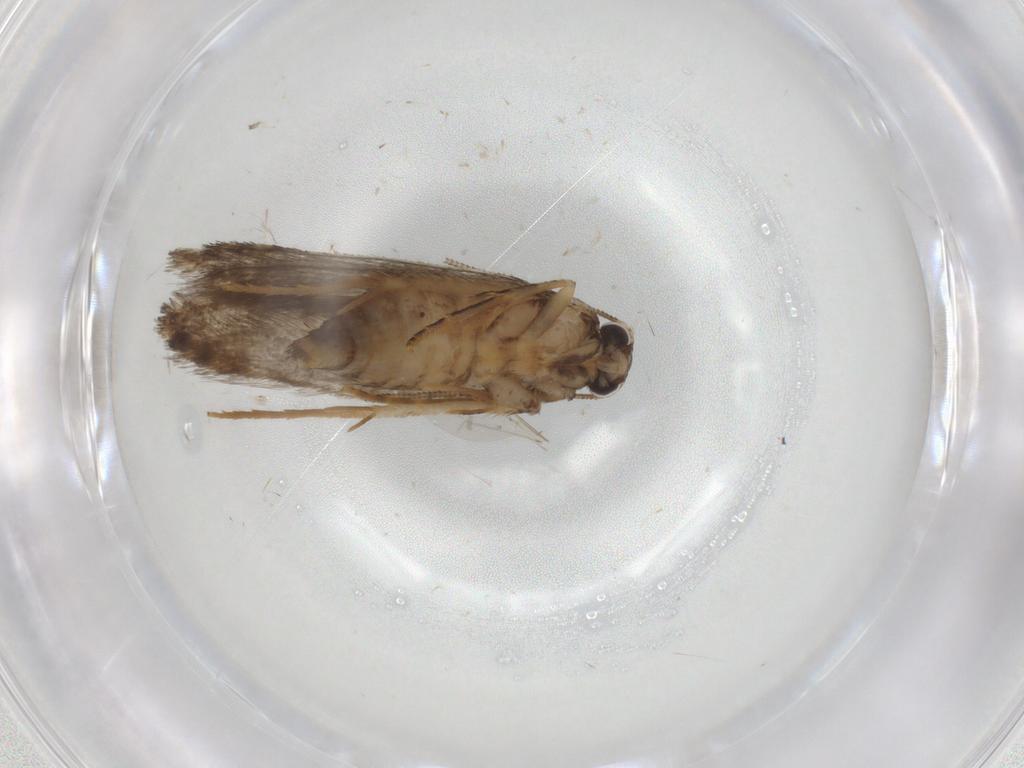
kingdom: Animalia
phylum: Arthropoda
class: Insecta
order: Lepidoptera
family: Tineidae
